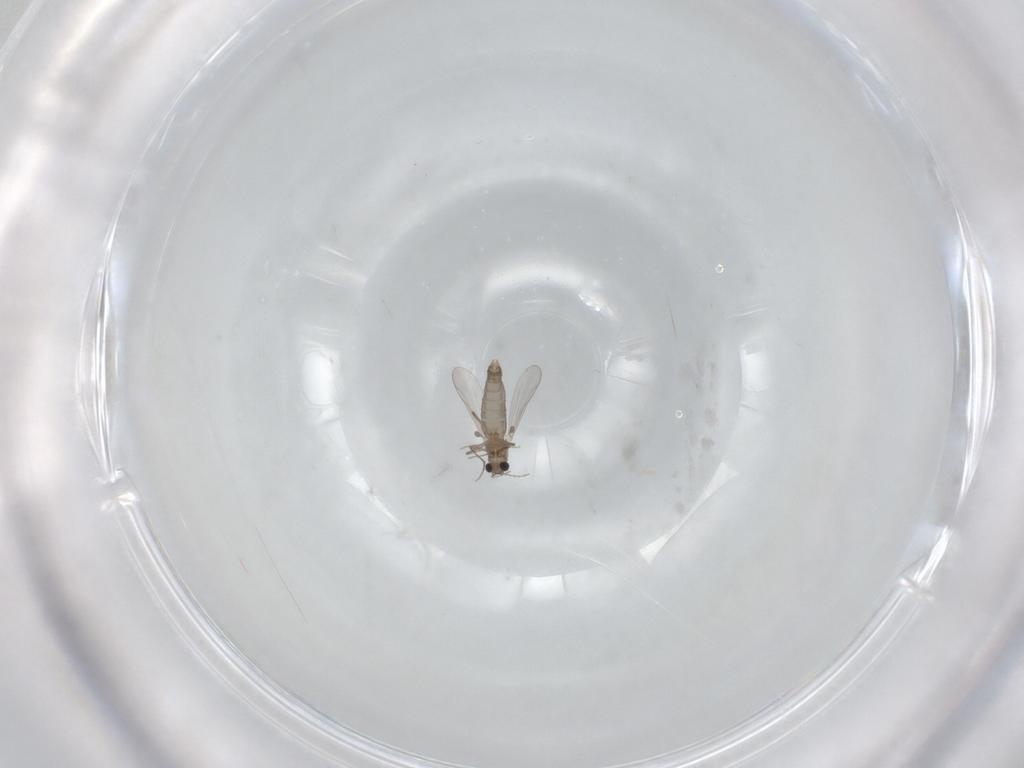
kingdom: Animalia
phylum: Arthropoda
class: Insecta
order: Diptera
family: Chironomidae
